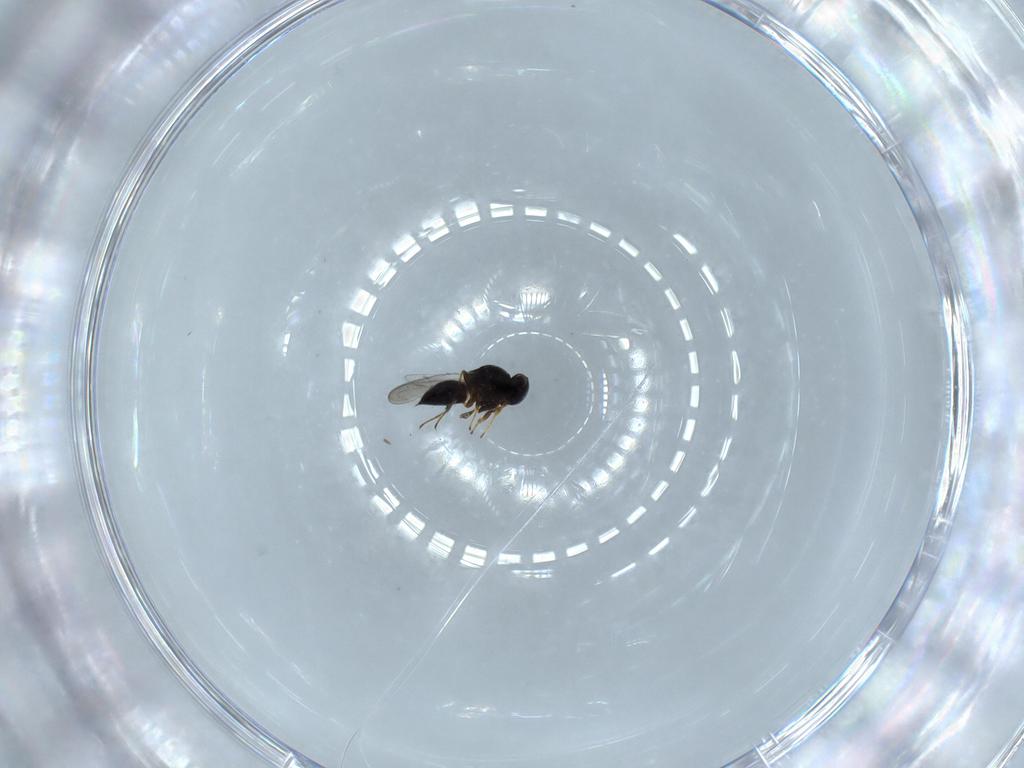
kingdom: Animalia
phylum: Arthropoda
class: Insecta
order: Hymenoptera
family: Platygastridae
